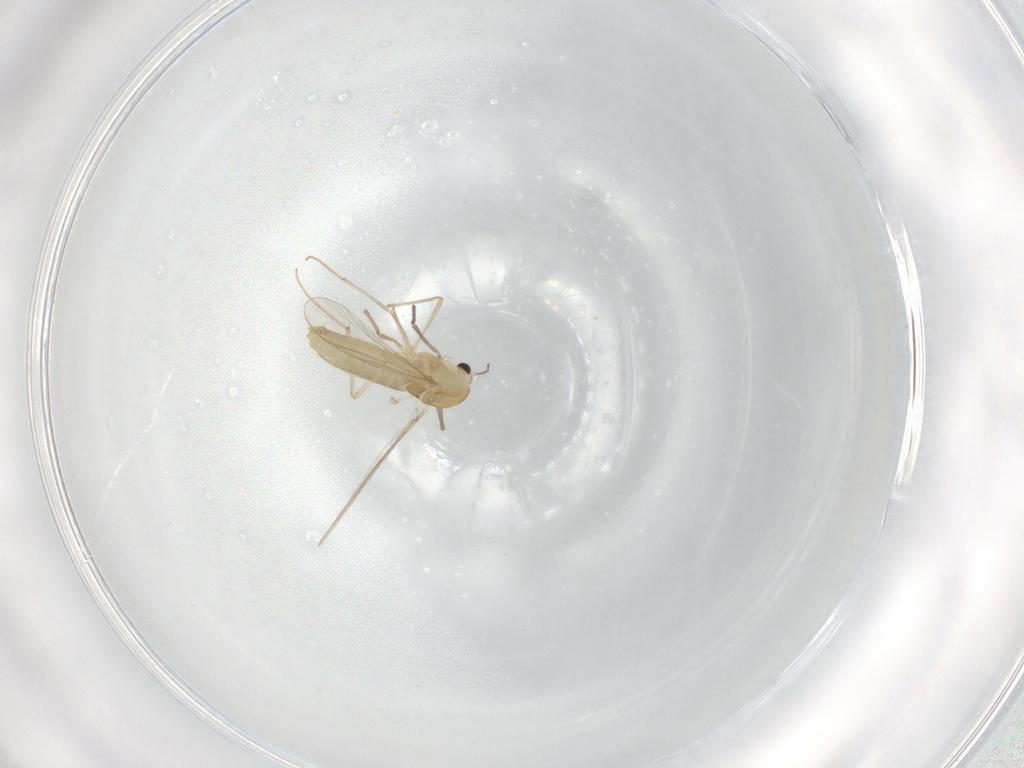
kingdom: Animalia
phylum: Arthropoda
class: Insecta
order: Diptera
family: Chironomidae
